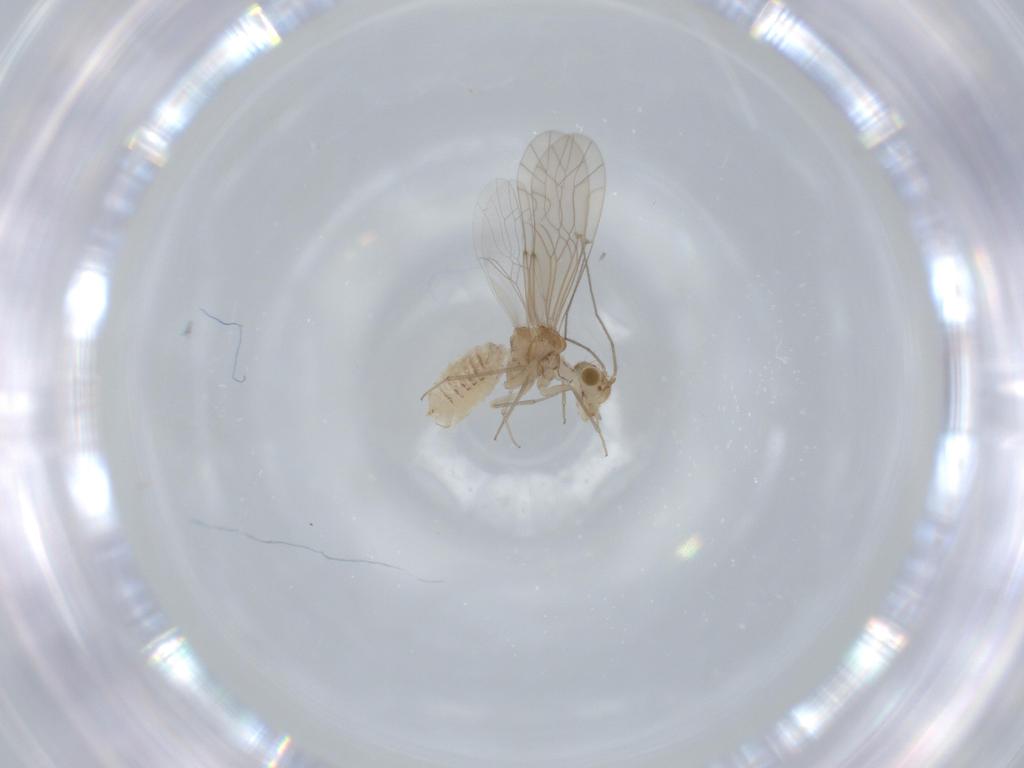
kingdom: Animalia
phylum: Arthropoda
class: Insecta
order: Psocodea
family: Lachesillidae
